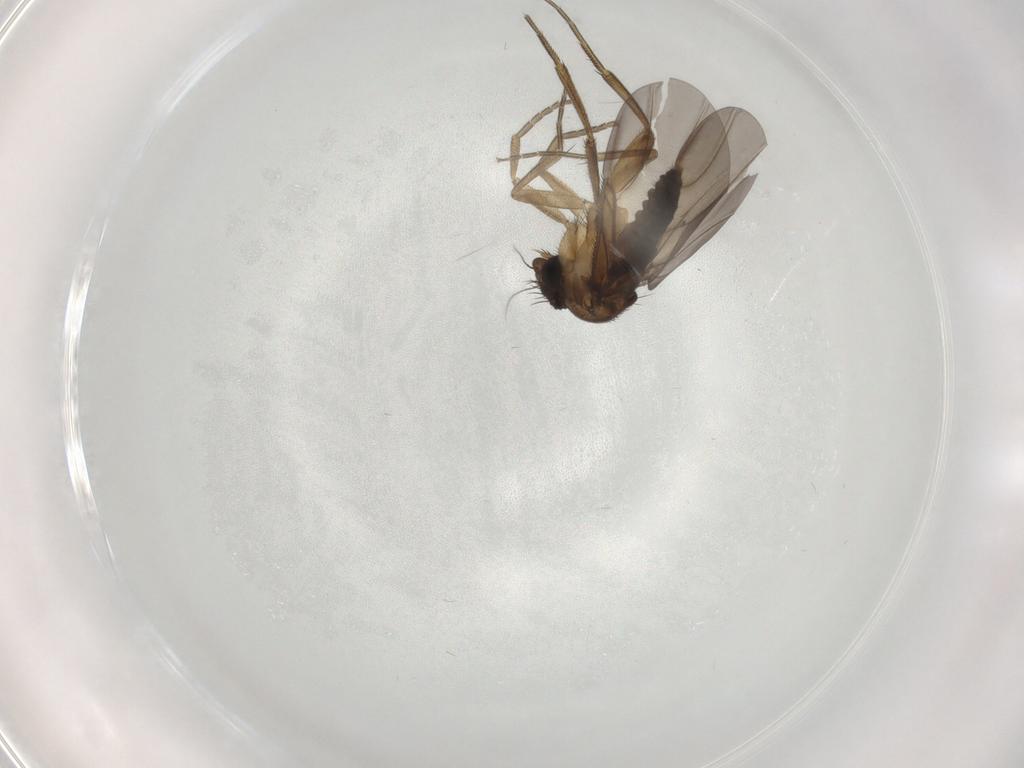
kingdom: Animalia
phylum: Arthropoda
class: Insecta
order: Diptera
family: Phoridae
